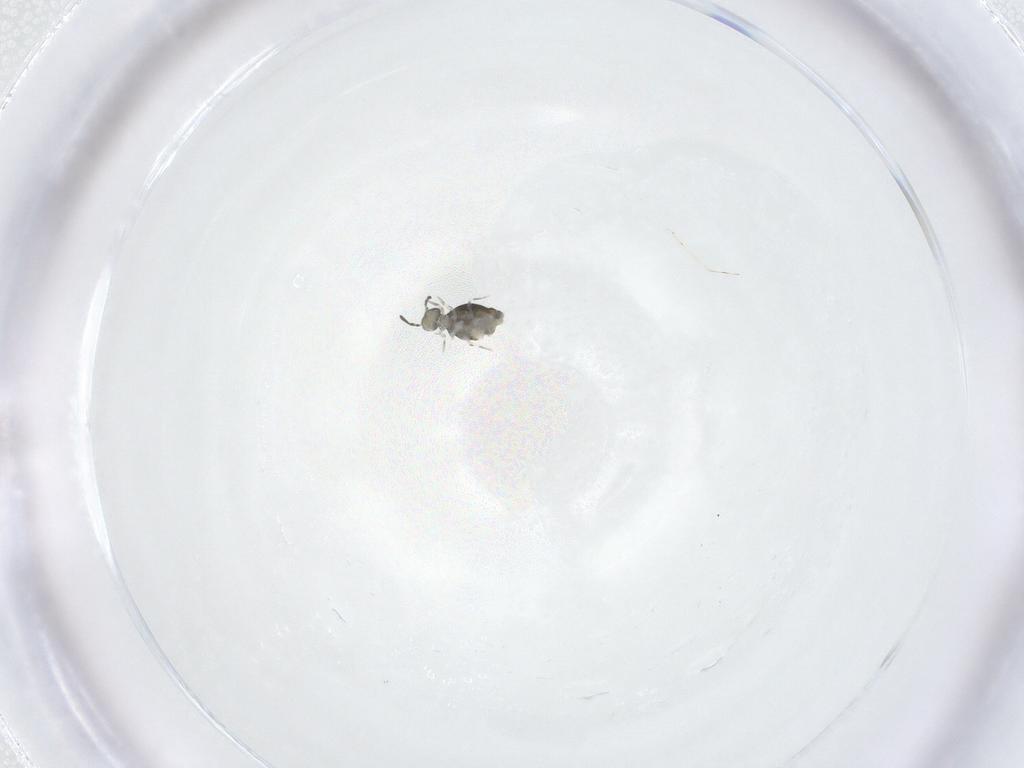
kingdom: Animalia
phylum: Arthropoda
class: Collembola
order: Symphypleona
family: Katiannidae
